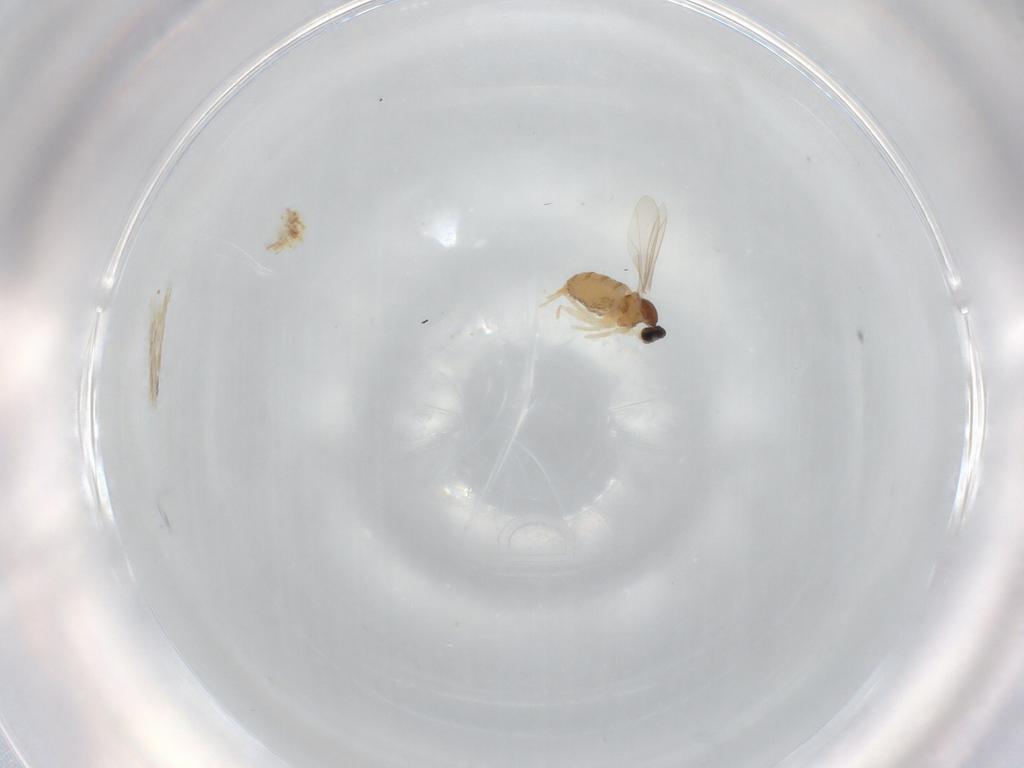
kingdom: Animalia
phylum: Arthropoda
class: Insecta
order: Diptera
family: Cecidomyiidae
